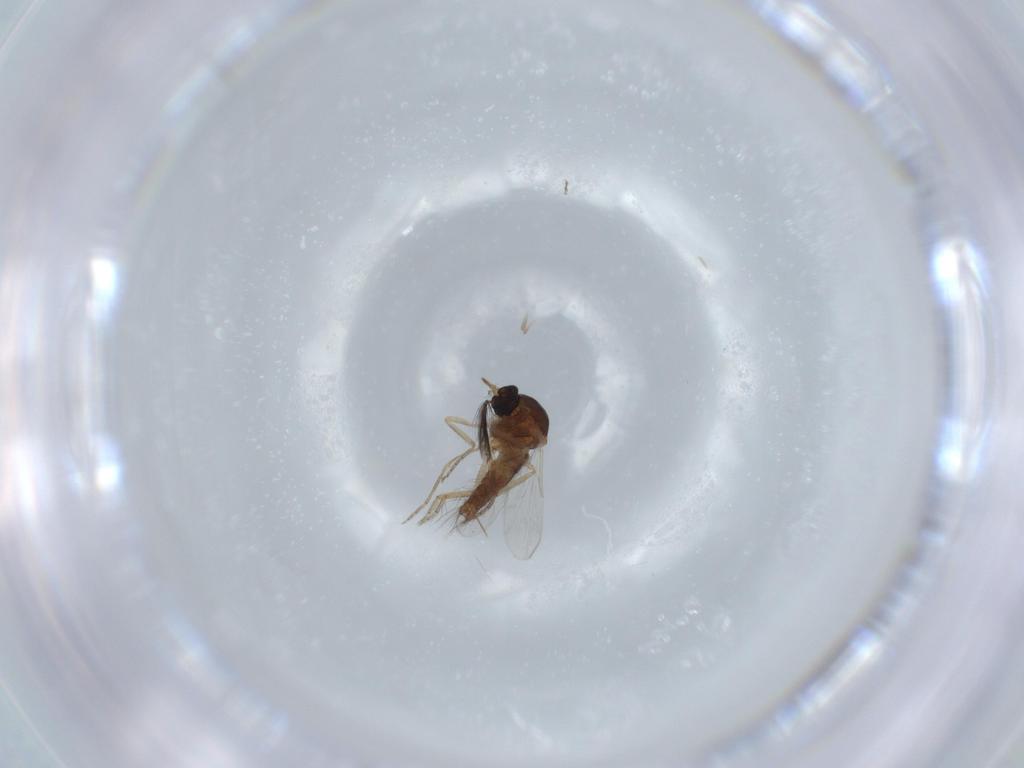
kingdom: Animalia
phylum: Arthropoda
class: Insecta
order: Diptera
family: Ceratopogonidae
